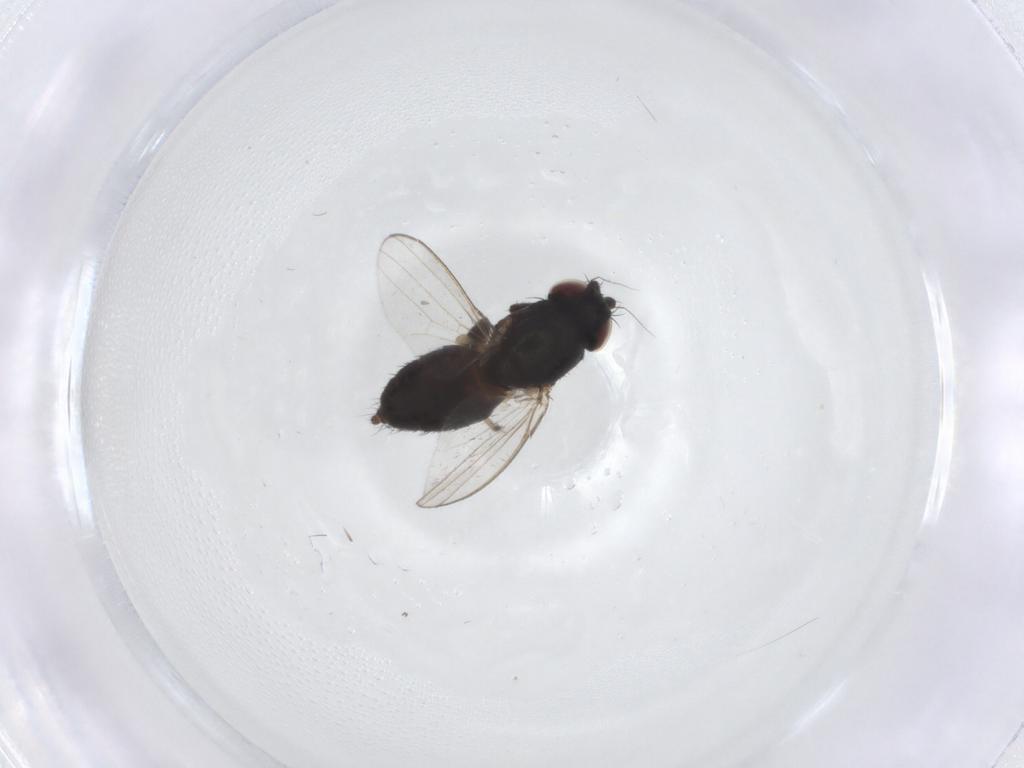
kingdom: Animalia
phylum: Arthropoda
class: Insecta
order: Diptera
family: Milichiidae
